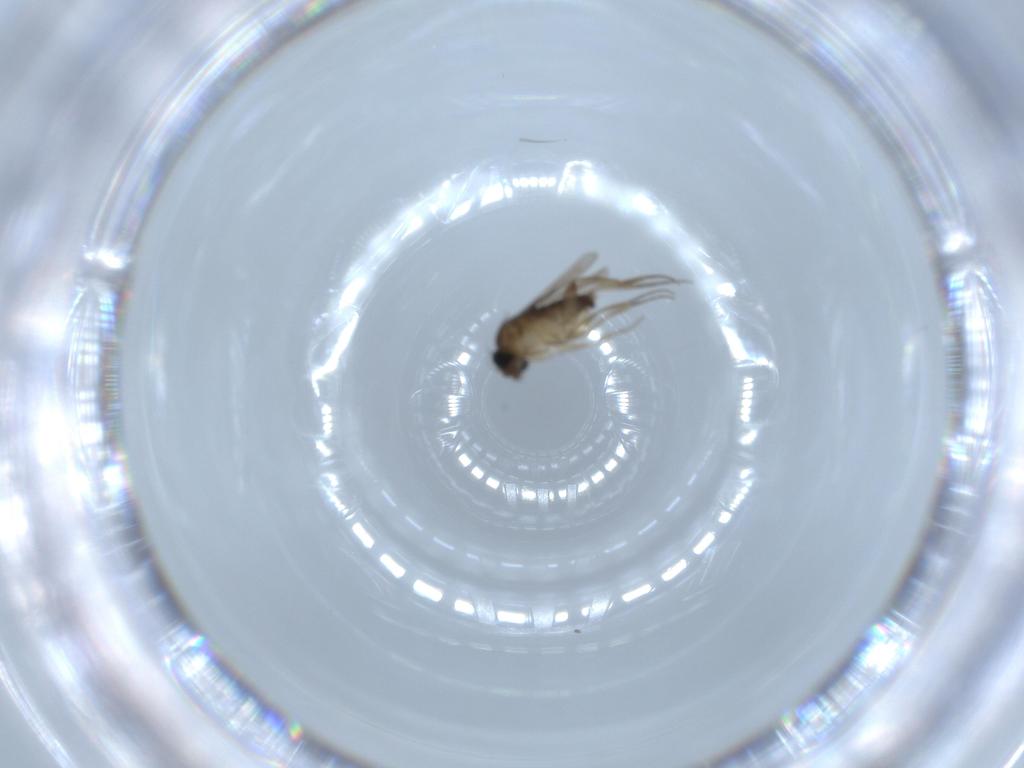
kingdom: Animalia
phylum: Arthropoda
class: Insecta
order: Diptera
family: Phoridae
